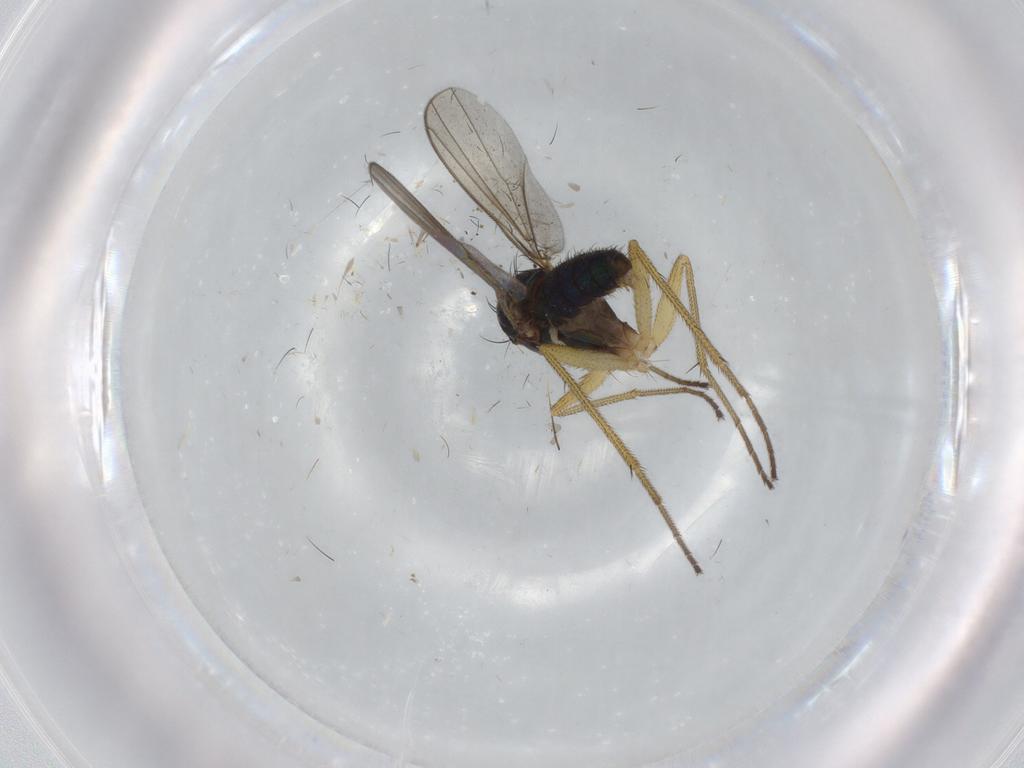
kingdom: Animalia
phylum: Arthropoda
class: Insecta
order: Diptera
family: Dolichopodidae
